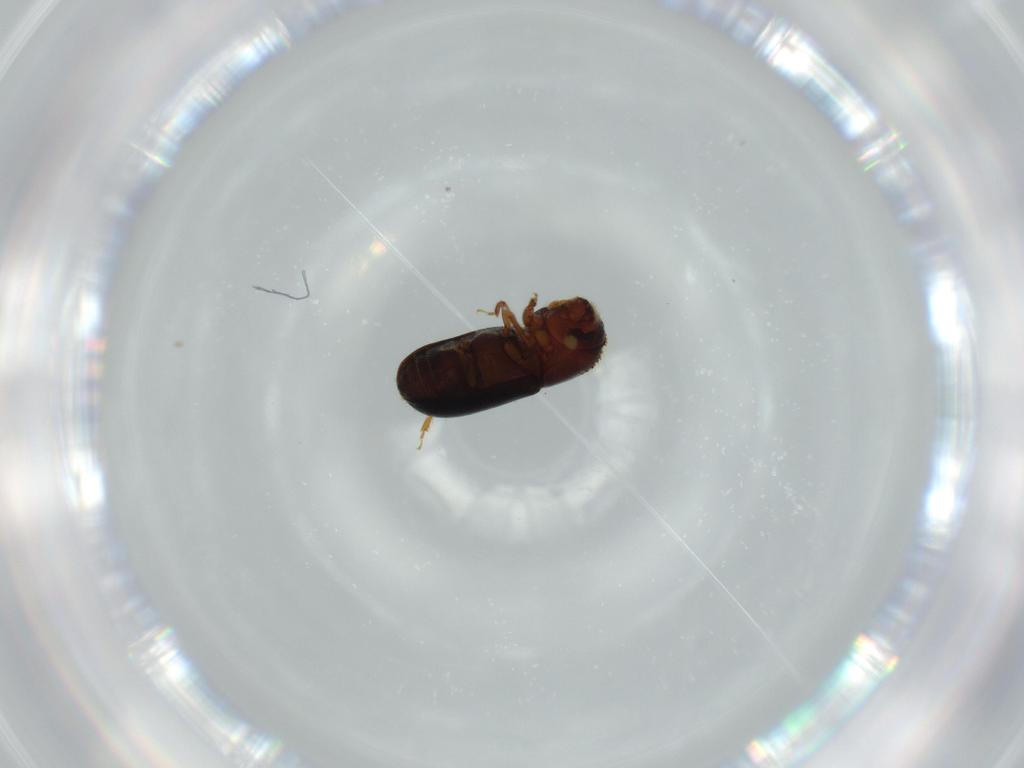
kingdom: Animalia
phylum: Arthropoda
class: Insecta
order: Coleoptera
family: Curculionidae
